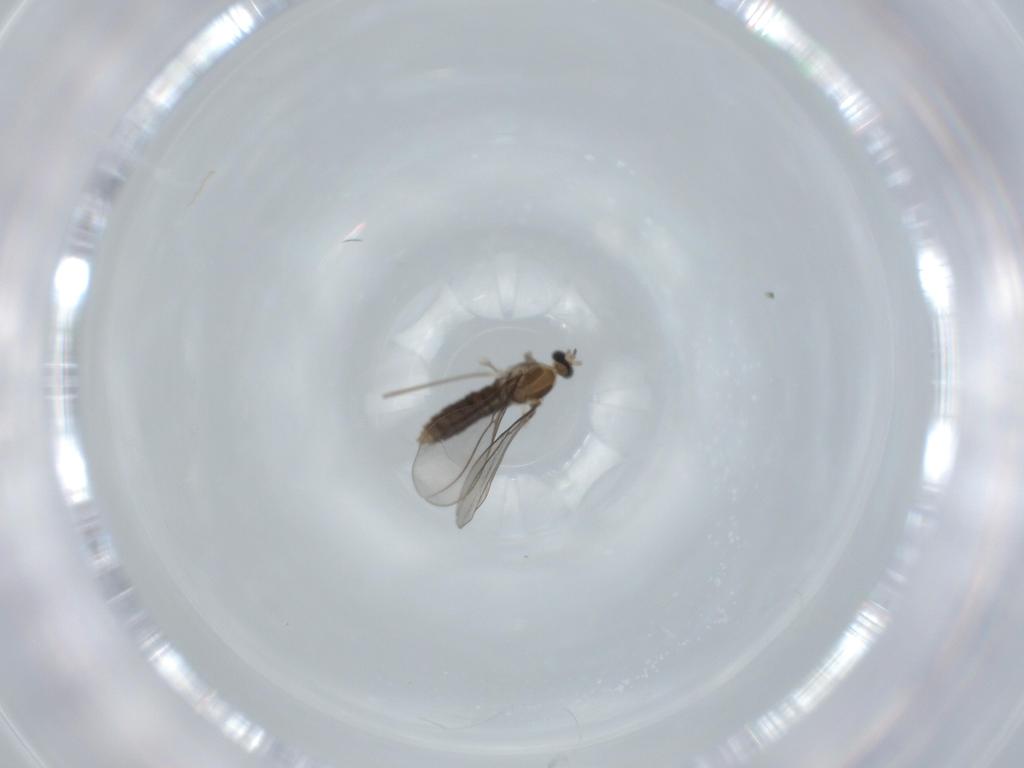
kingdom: Animalia
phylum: Arthropoda
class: Insecta
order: Diptera
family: Cecidomyiidae
